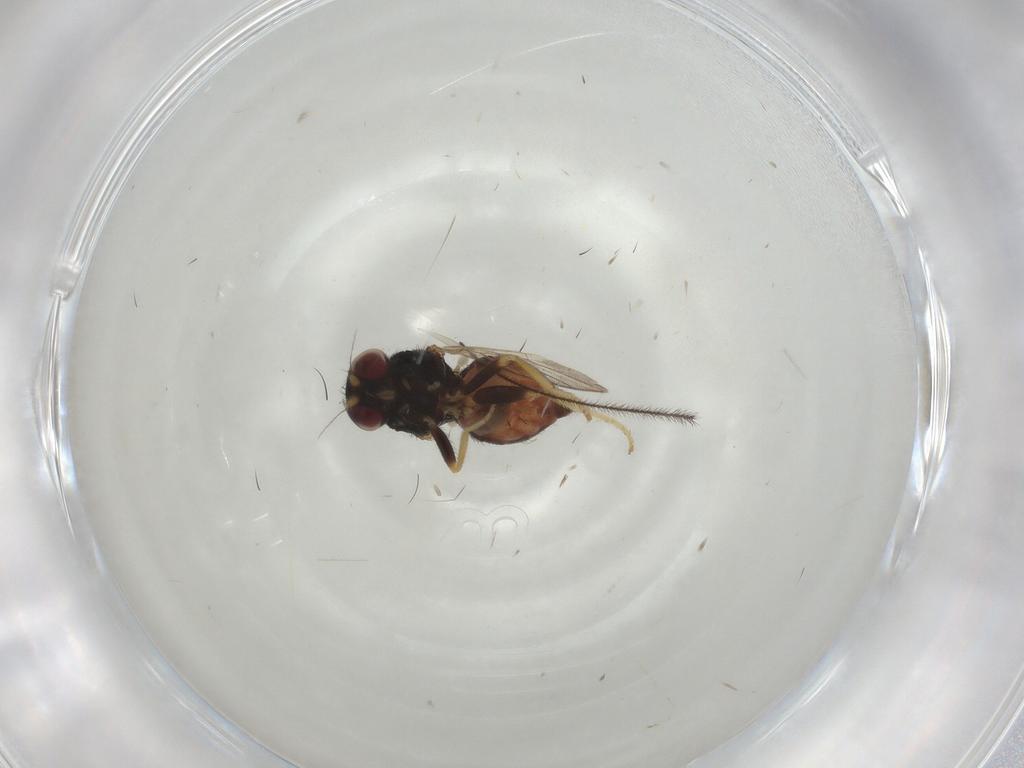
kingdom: Animalia
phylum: Arthropoda
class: Insecta
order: Diptera
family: Chloropidae
